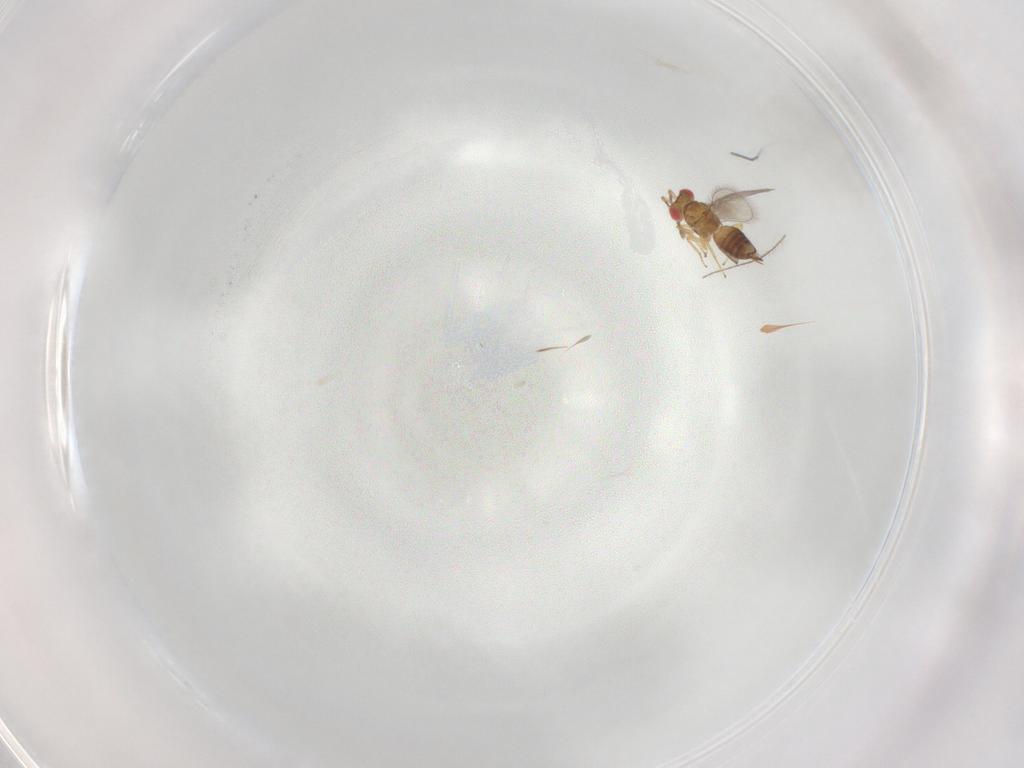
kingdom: Animalia
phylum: Arthropoda
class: Insecta
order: Hymenoptera
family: Eulophidae
